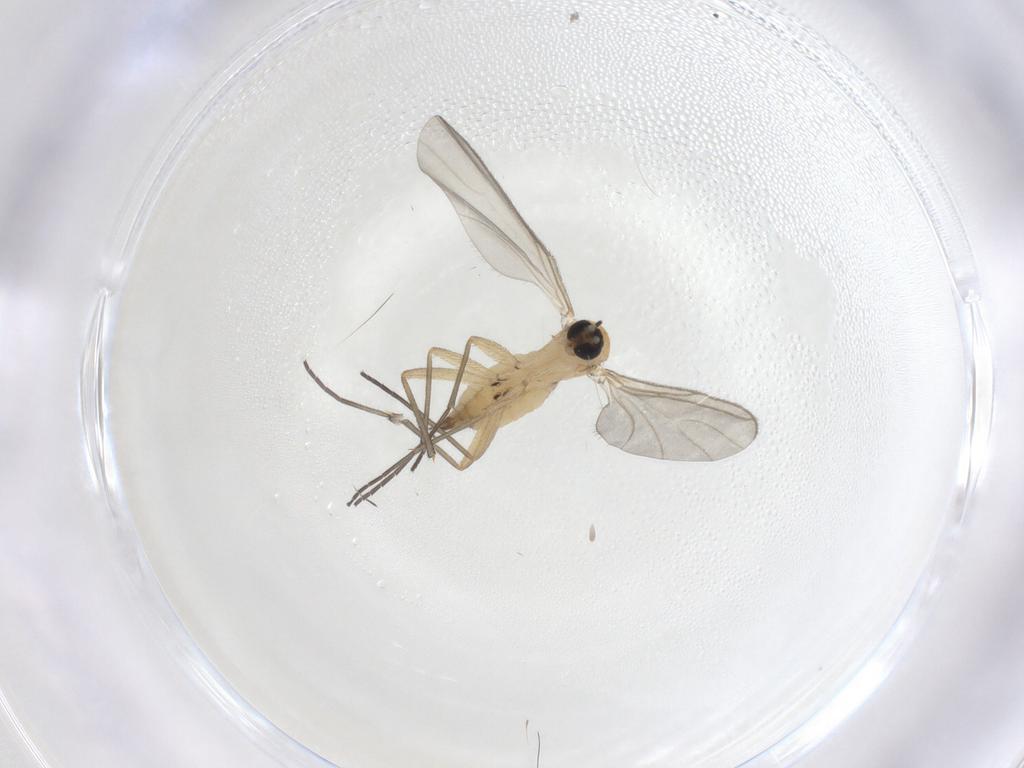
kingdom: Animalia
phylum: Arthropoda
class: Insecta
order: Diptera
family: Sciaridae
